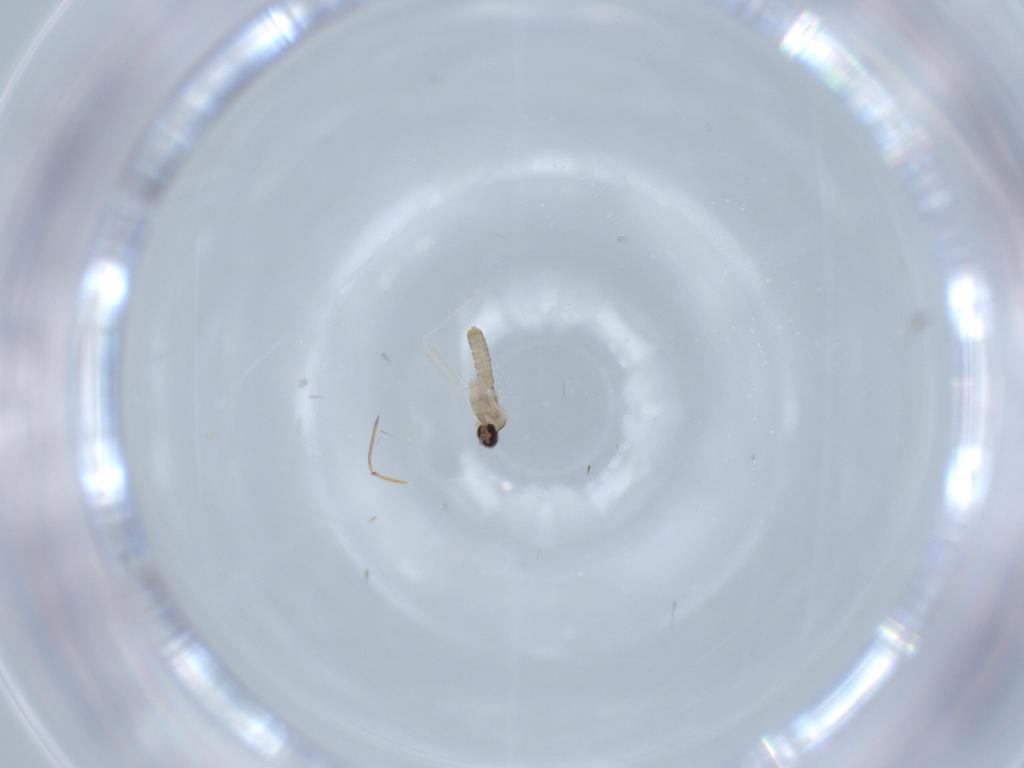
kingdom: Animalia
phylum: Arthropoda
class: Insecta
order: Diptera
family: Cecidomyiidae
